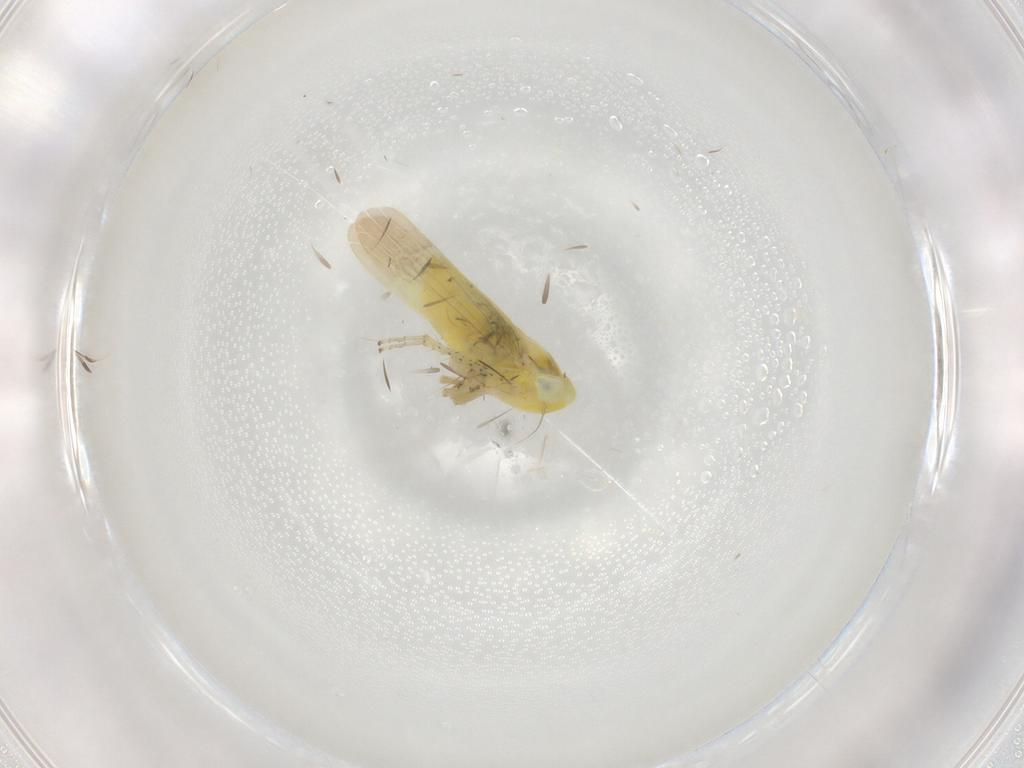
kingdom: Animalia
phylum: Arthropoda
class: Insecta
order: Hemiptera
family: Cicadellidae
